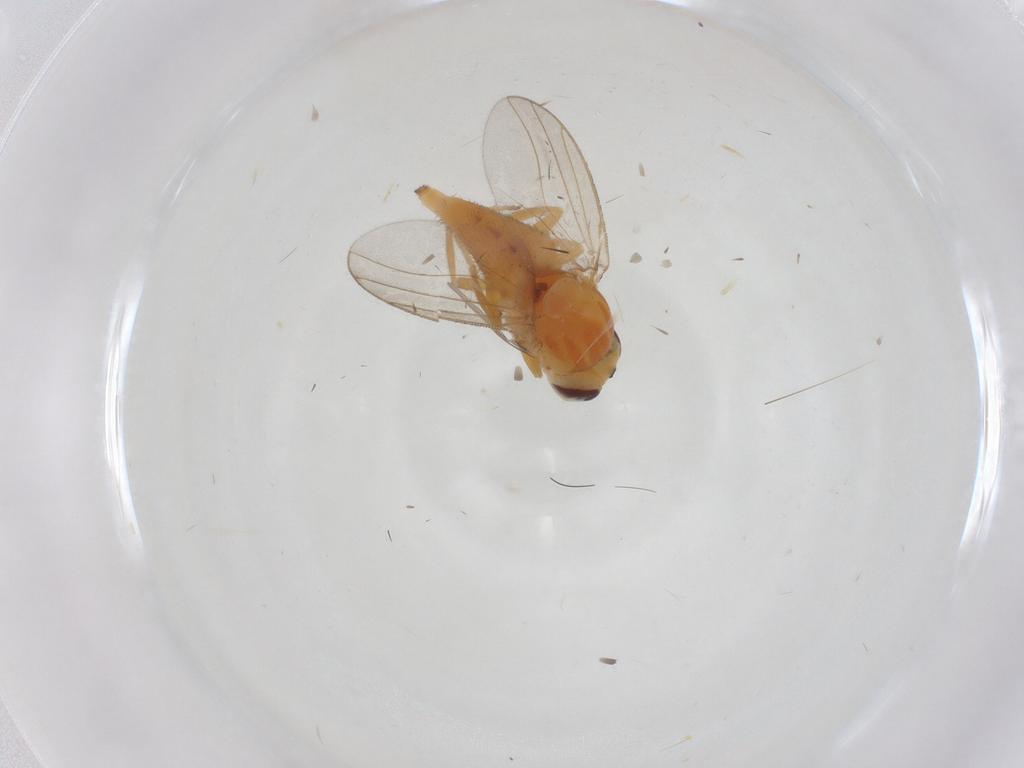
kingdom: Animalia
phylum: Arthropoda
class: Insecta
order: Diptera
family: Chloropidae
